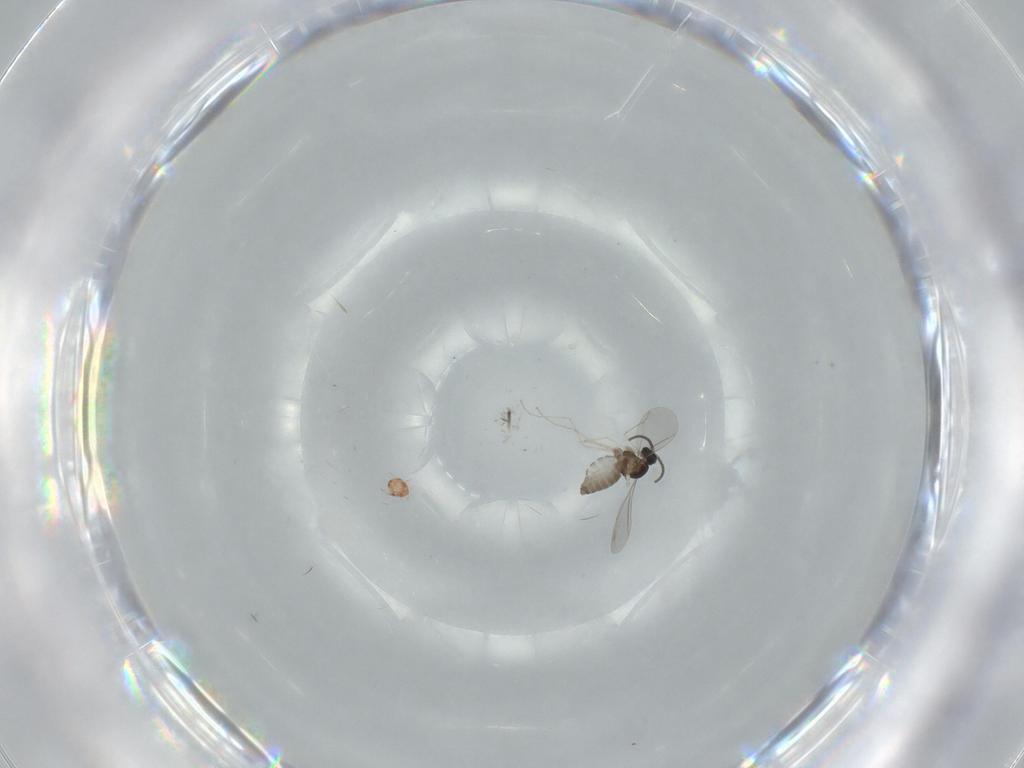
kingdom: Animalia
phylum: Arthropoda
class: Insecta
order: Diptera
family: Cecidomyiidae
